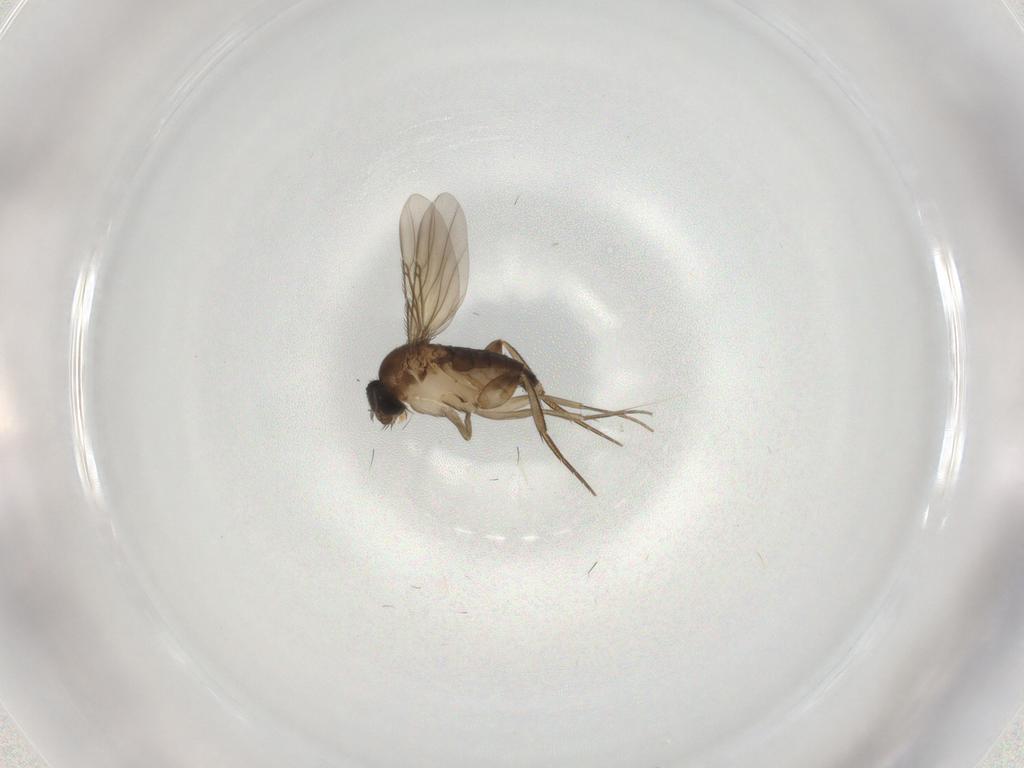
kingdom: Animalia
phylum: Arthropoda
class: Insecta
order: Diptera
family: Phoridae
